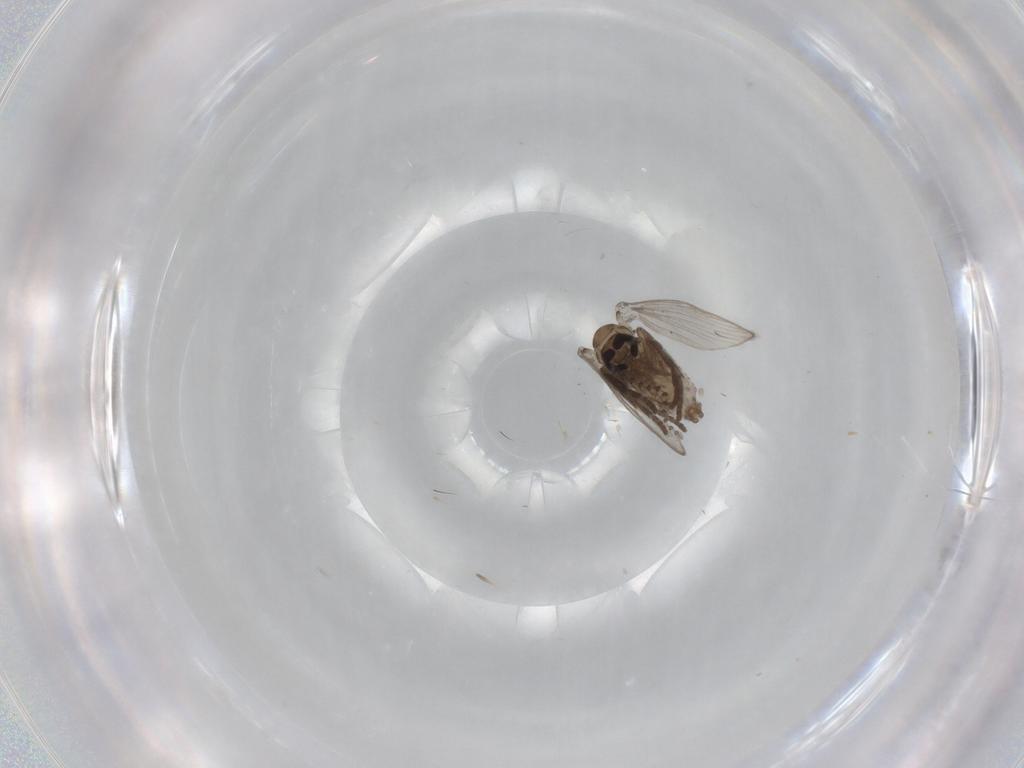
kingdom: Animalia
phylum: Arthropoda
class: Insecta
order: Diptera
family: Psychodidae
